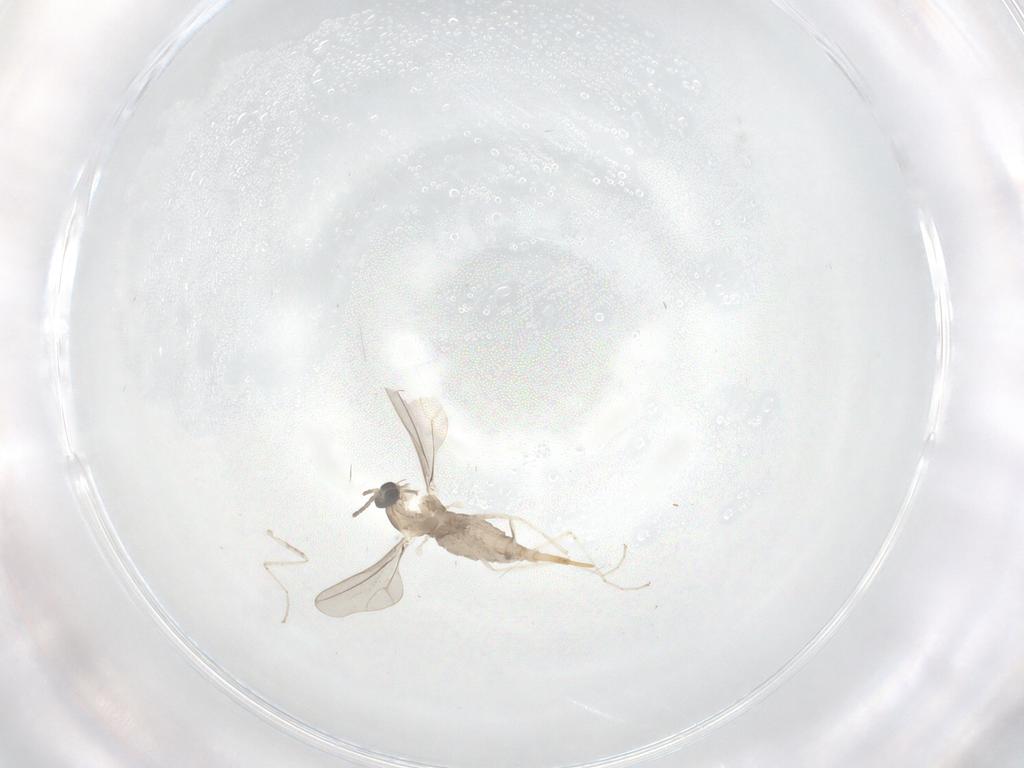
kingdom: Animalia
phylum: Arthropoda
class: Insecta
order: Diptera
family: Cecidomyiidae
